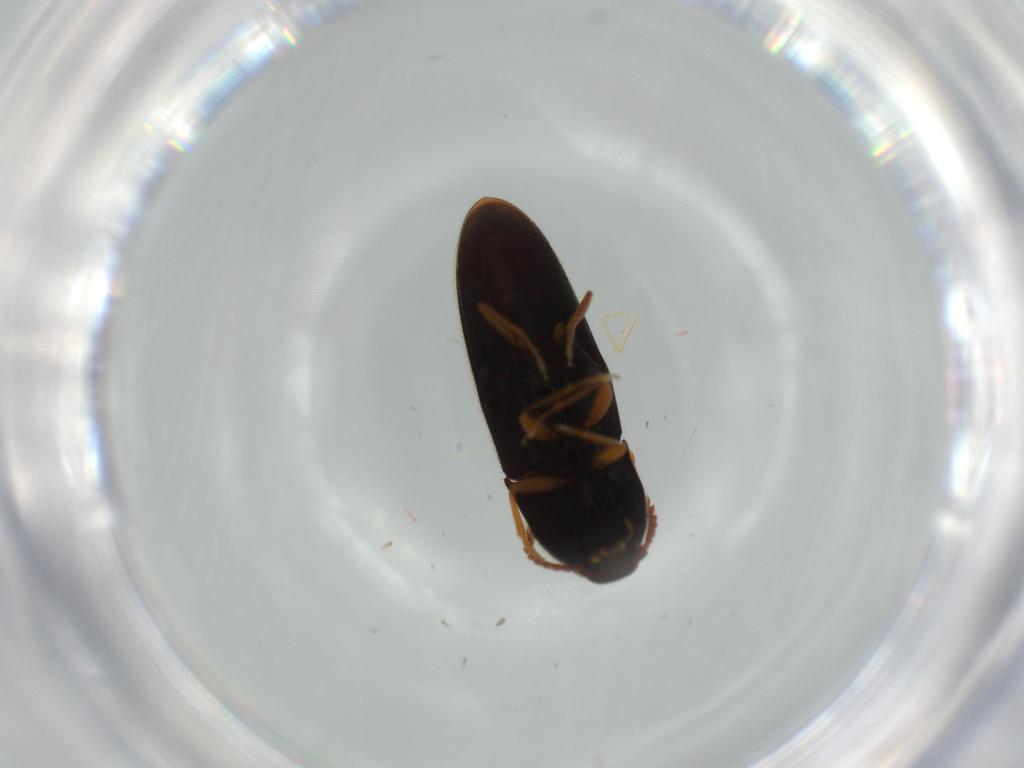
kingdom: Animalia
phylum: Arthropoda
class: Insecta
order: Coleoptera
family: Elateridae
